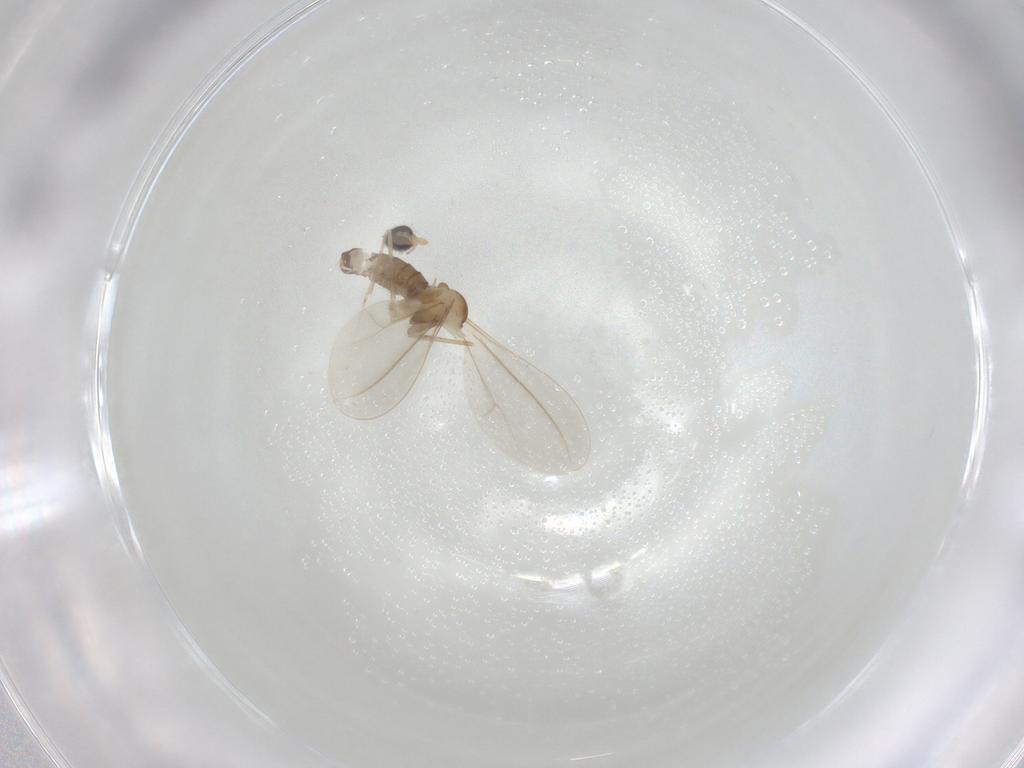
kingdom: Animalia
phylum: Arthropoda
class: Insecta
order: Diptera
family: Cecidomyiidae
